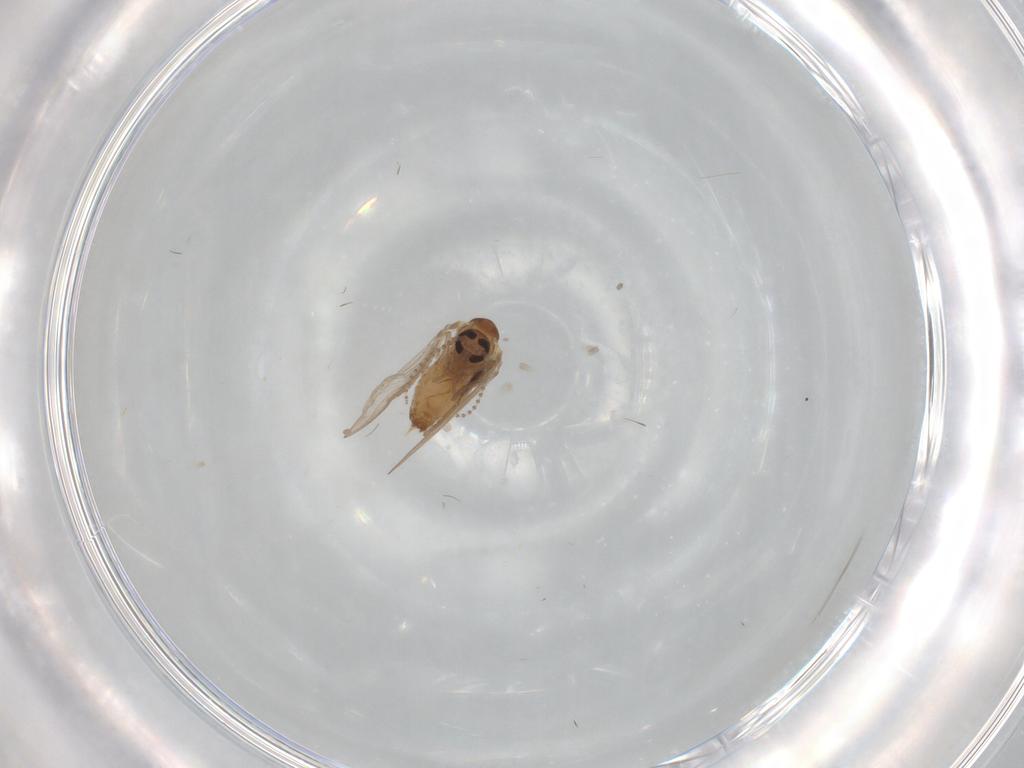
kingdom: Animalia
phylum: Arthropoda
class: Insecta
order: Diptera
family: Psychodidae
